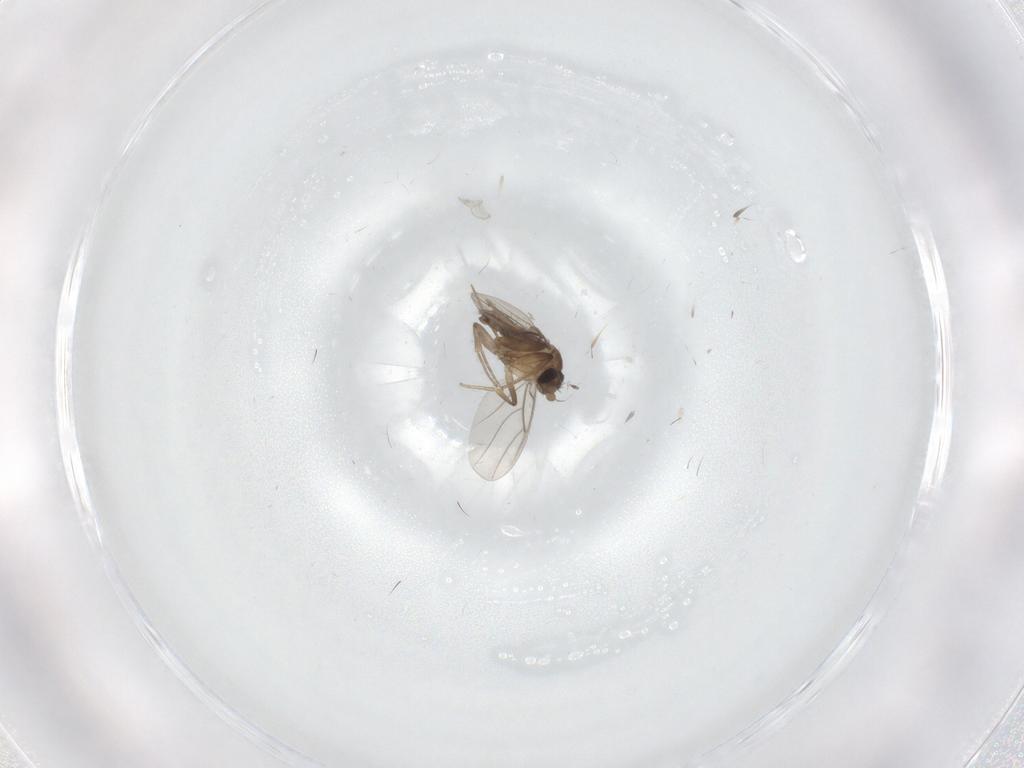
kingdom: Animalia
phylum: Arthropoda
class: Insecta
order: Diptera
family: Phoridae
